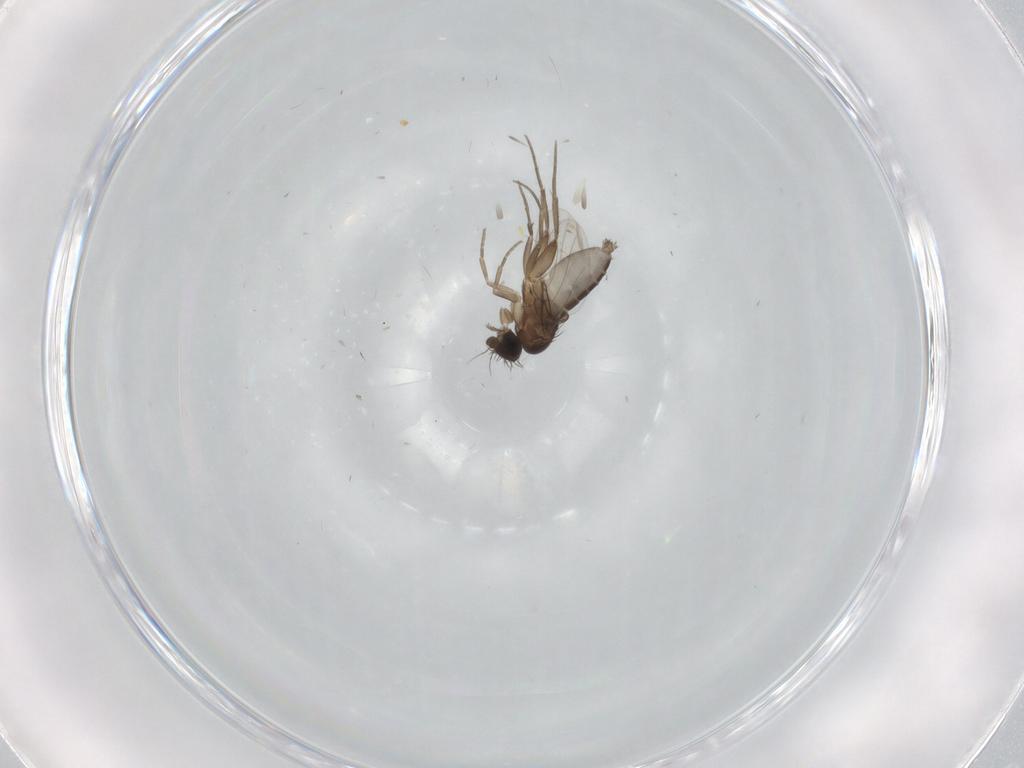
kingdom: Animalia
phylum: Arthropoda
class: Insecta
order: Diptera
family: Ceratopogonidae
